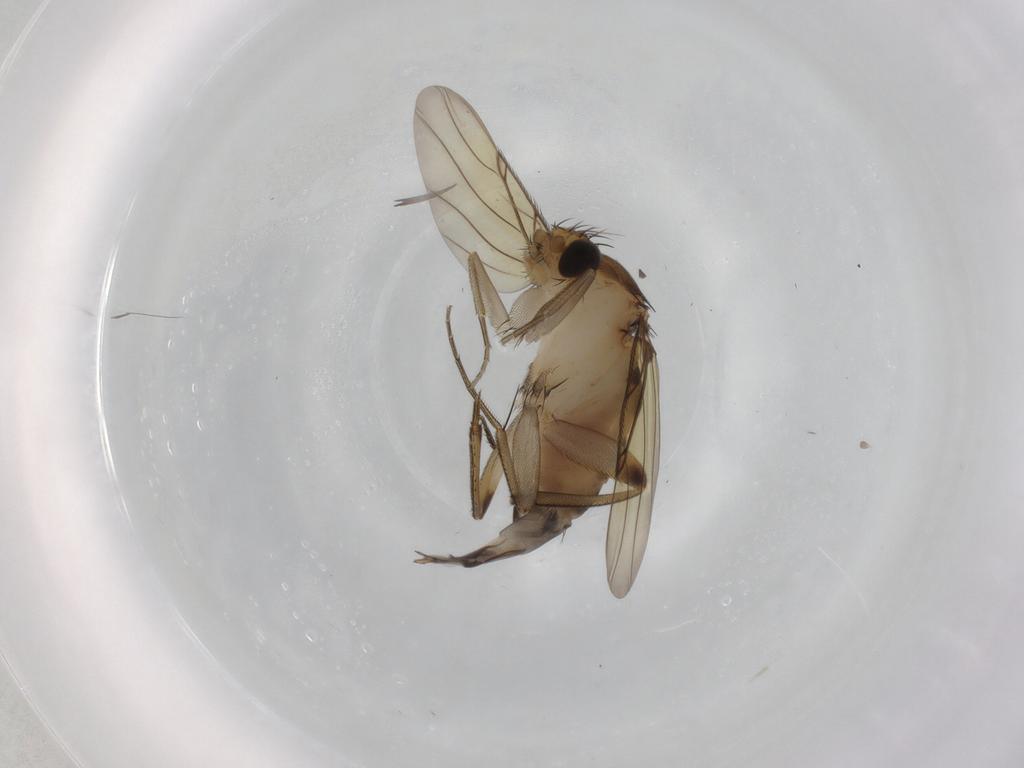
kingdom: Animalia
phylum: Arthropoda
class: Insecta
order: Diptera
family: Phoridae
